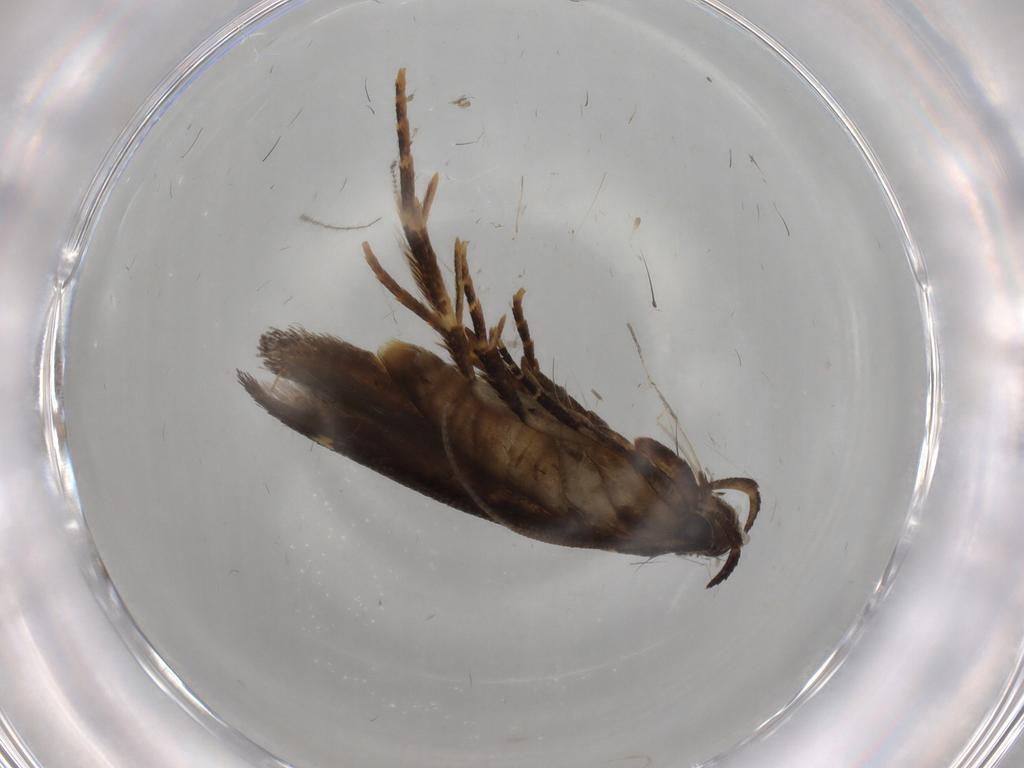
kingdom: Animalia
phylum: Arthropoda
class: Insecta
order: Lepidoptera
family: Cosmopterigidae
